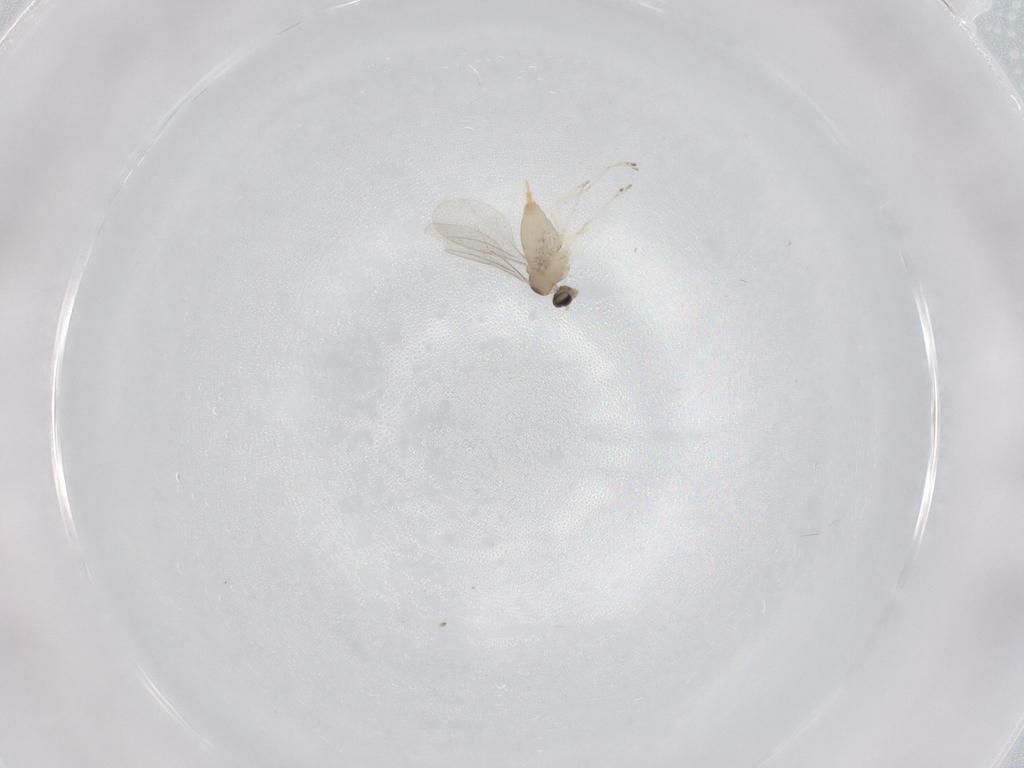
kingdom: Animalia
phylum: Arthropoda
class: Insecta
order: Diptera
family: Cecidomyiidae
